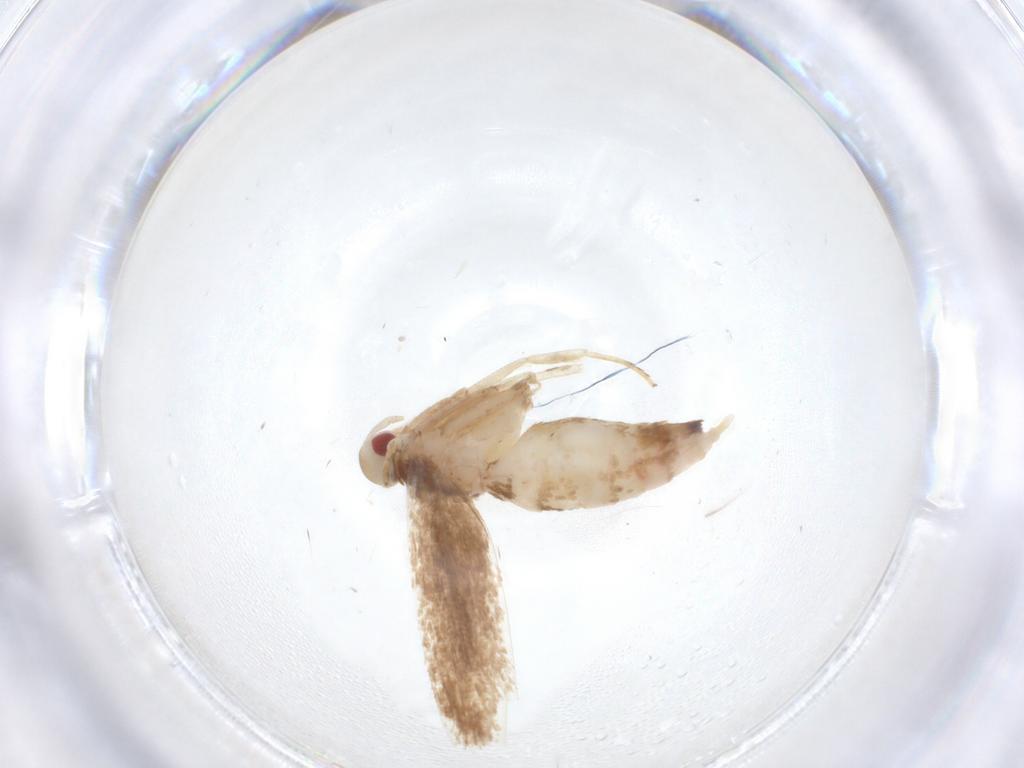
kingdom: Animalia
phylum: Arthropoda
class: Insecta
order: Lepidoptera
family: Cosmopterigidae
